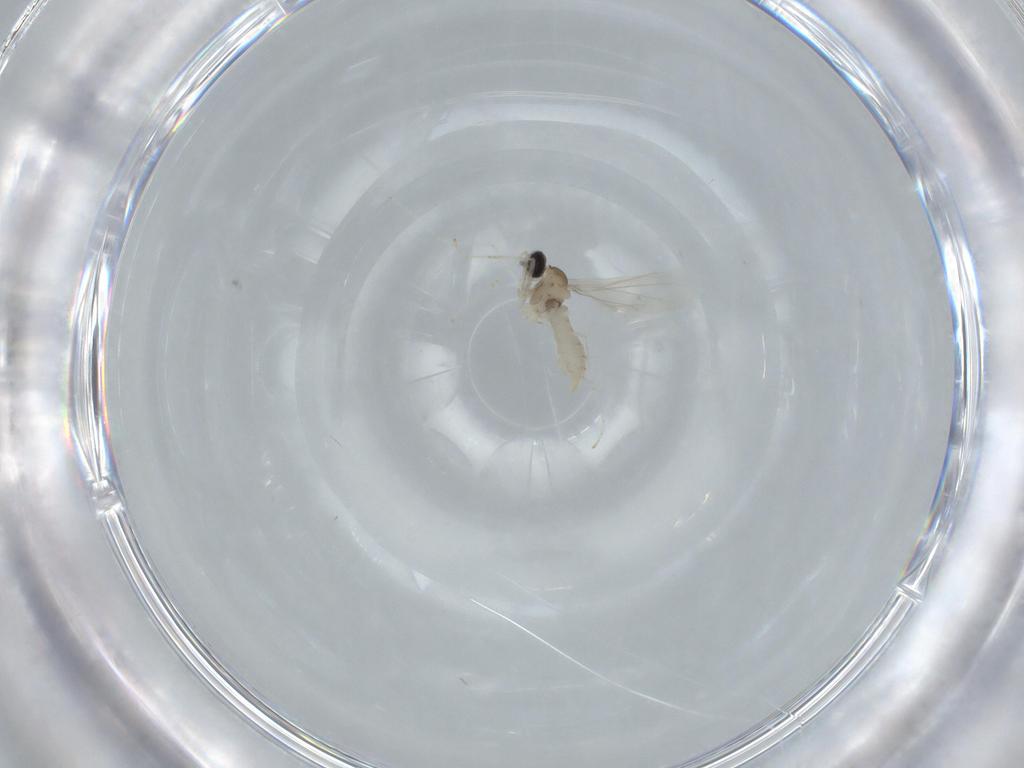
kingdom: Animalia
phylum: Arthropoda
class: Insecta
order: Diptera
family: Cecidomyiidae
